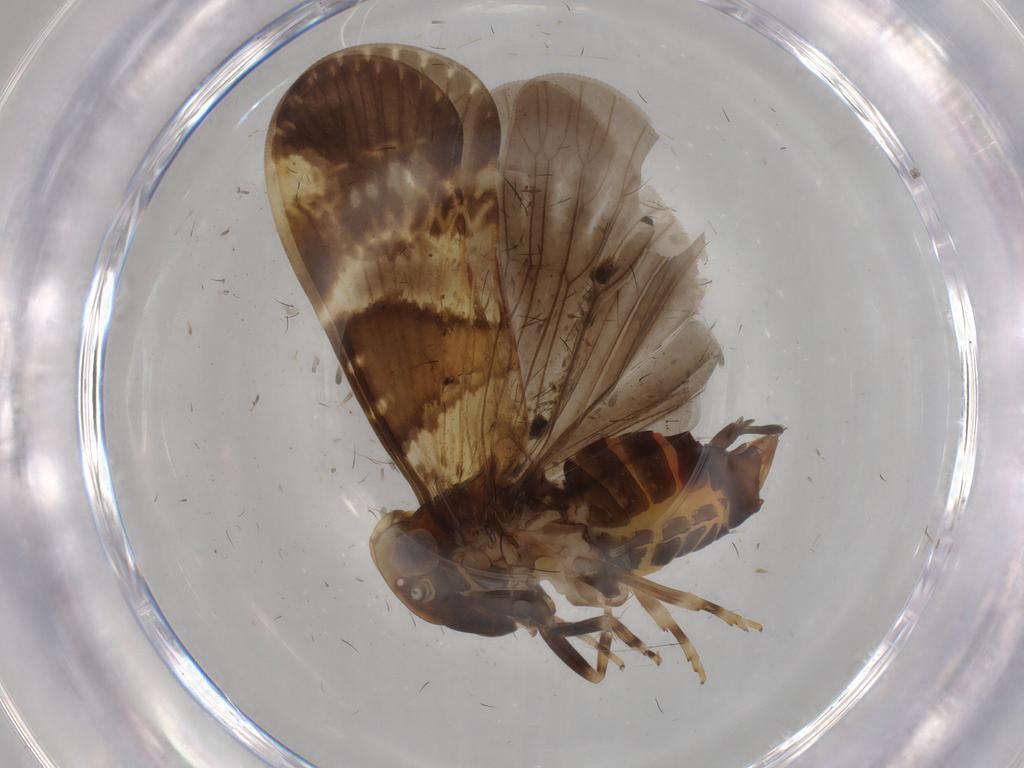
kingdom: Animalia
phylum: Arthropoda
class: Insecta
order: Hemiptera
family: Cixiidae
